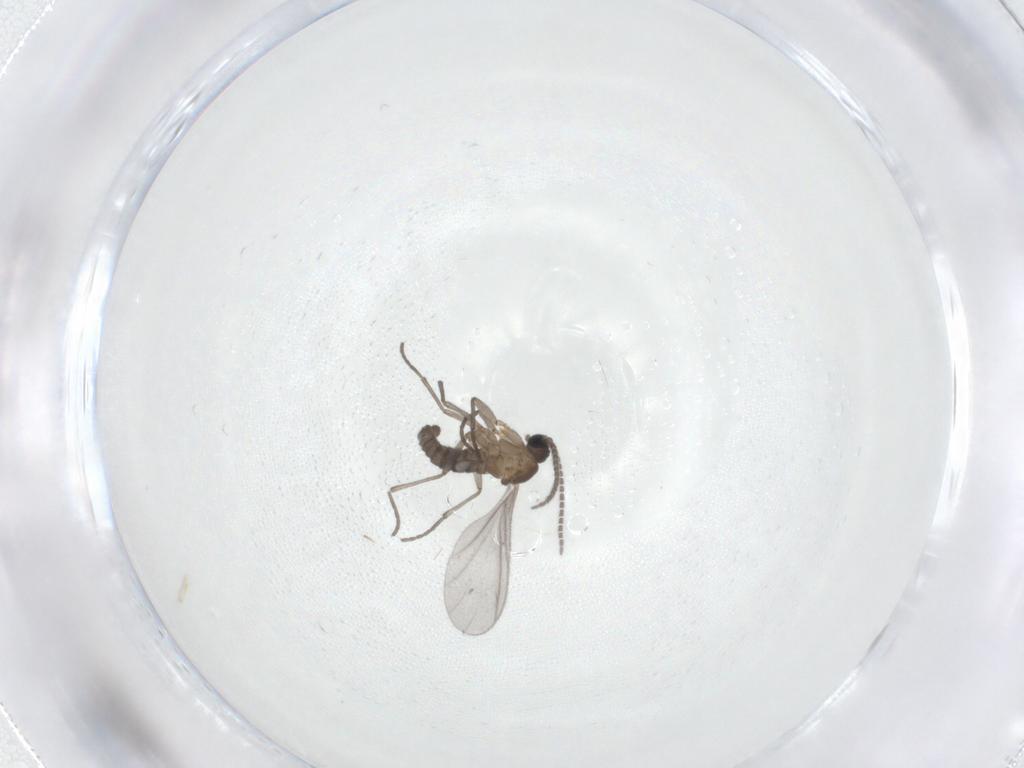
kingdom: Animalia
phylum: Arthropoda
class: Insecta
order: Diptera
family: Sciaridae
